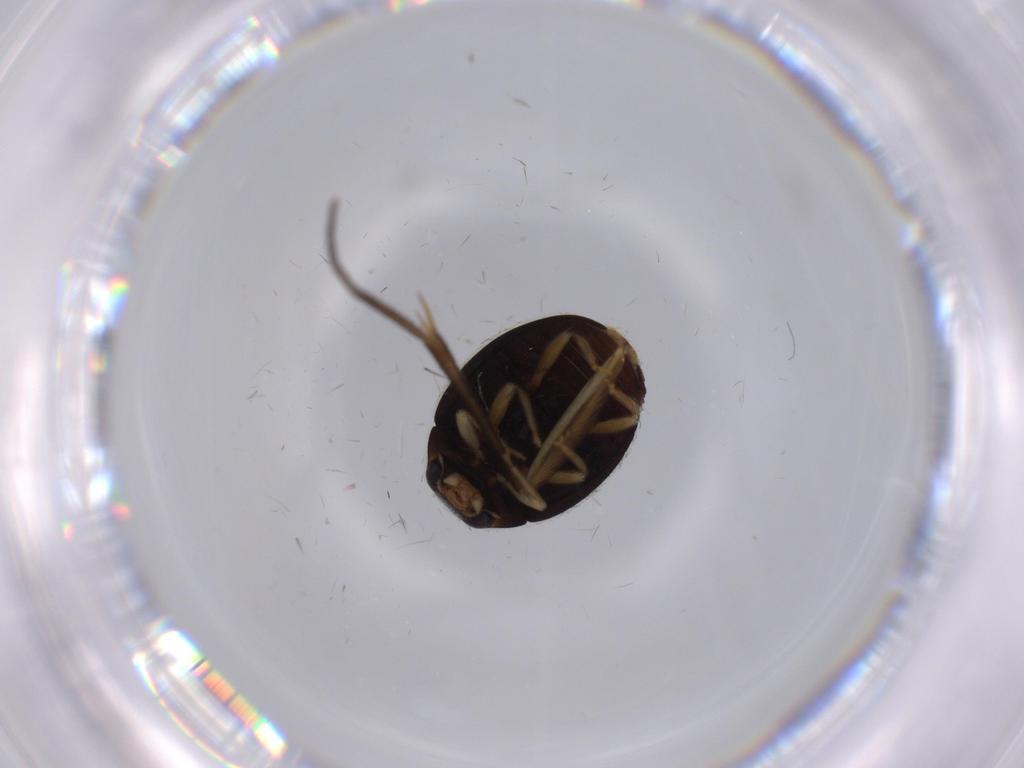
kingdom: Animalia
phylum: Arthropoda
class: Insecta
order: Coleoptera
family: Coccinellidae
